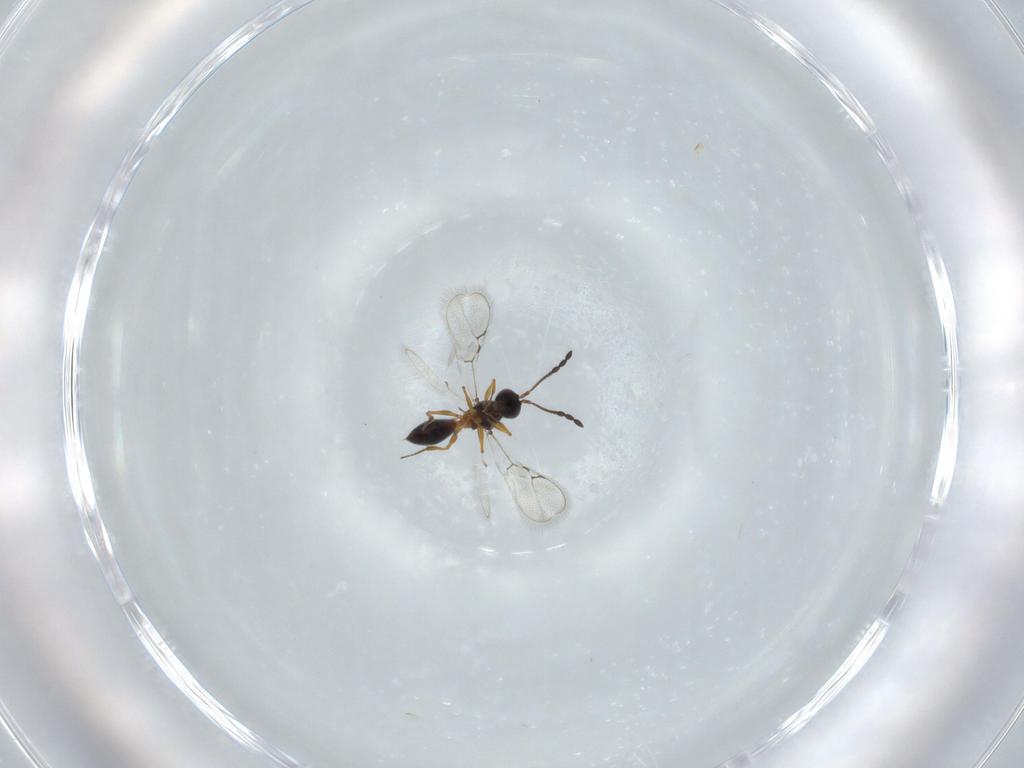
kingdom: Animalia
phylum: Arthropoda
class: Insecta
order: Hymenoptera
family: Figitidae
